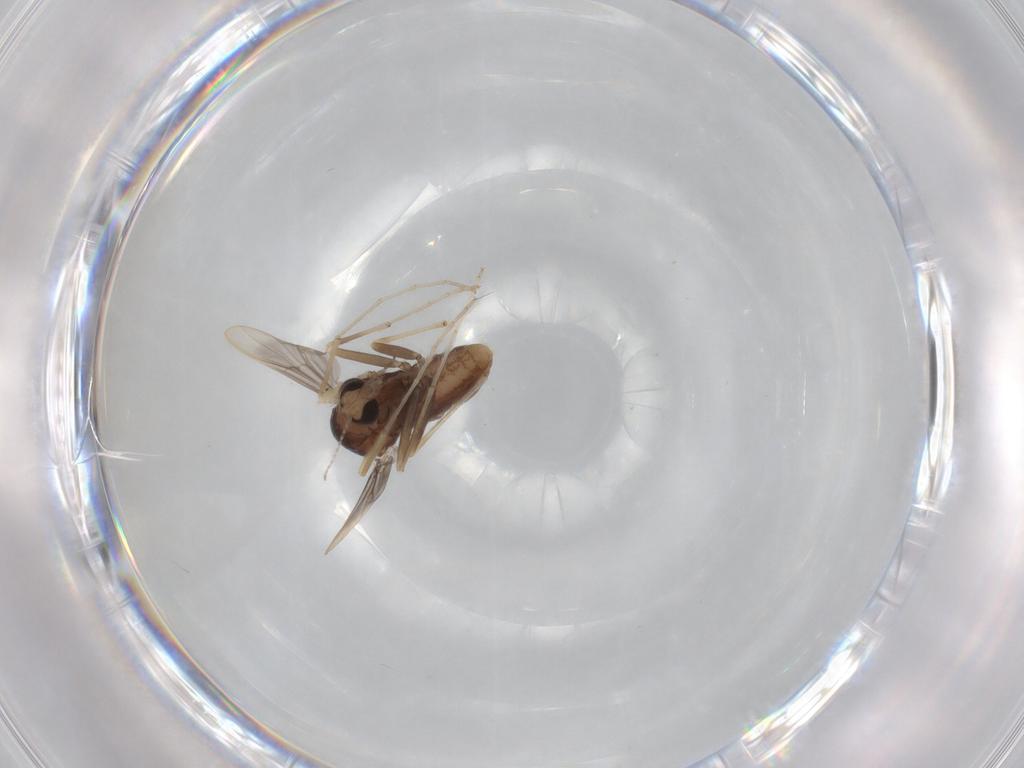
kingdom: Animalia
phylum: Arthropoda
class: Insecta
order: Diptera
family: Chironomidae
